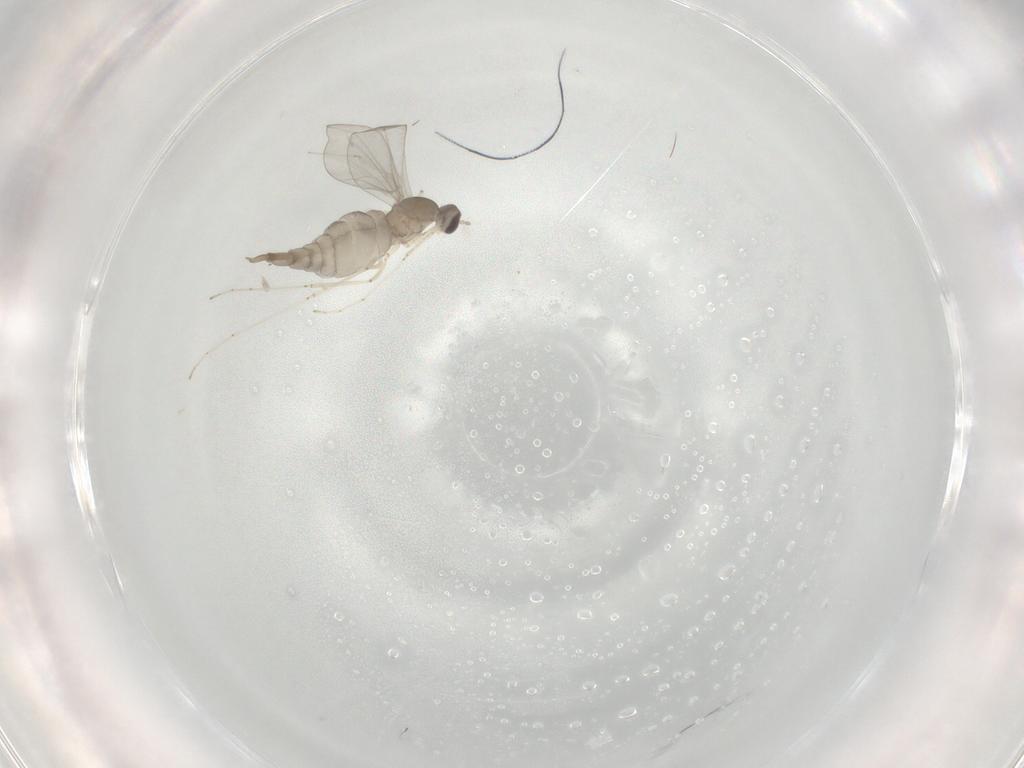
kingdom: Animalia
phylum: Arthropoda
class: Insecta
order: Diptera
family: Cecidomyiidae
